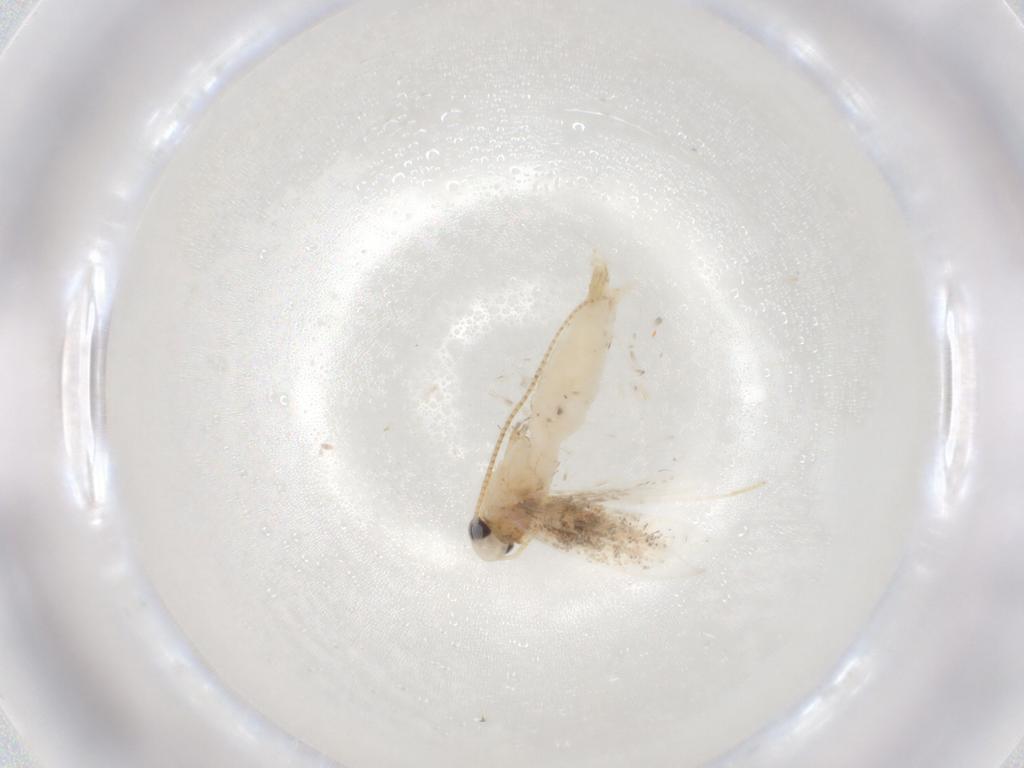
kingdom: Animalia
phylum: Arthropoda
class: Insecta
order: Lepidoptera
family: Gracillariidae
